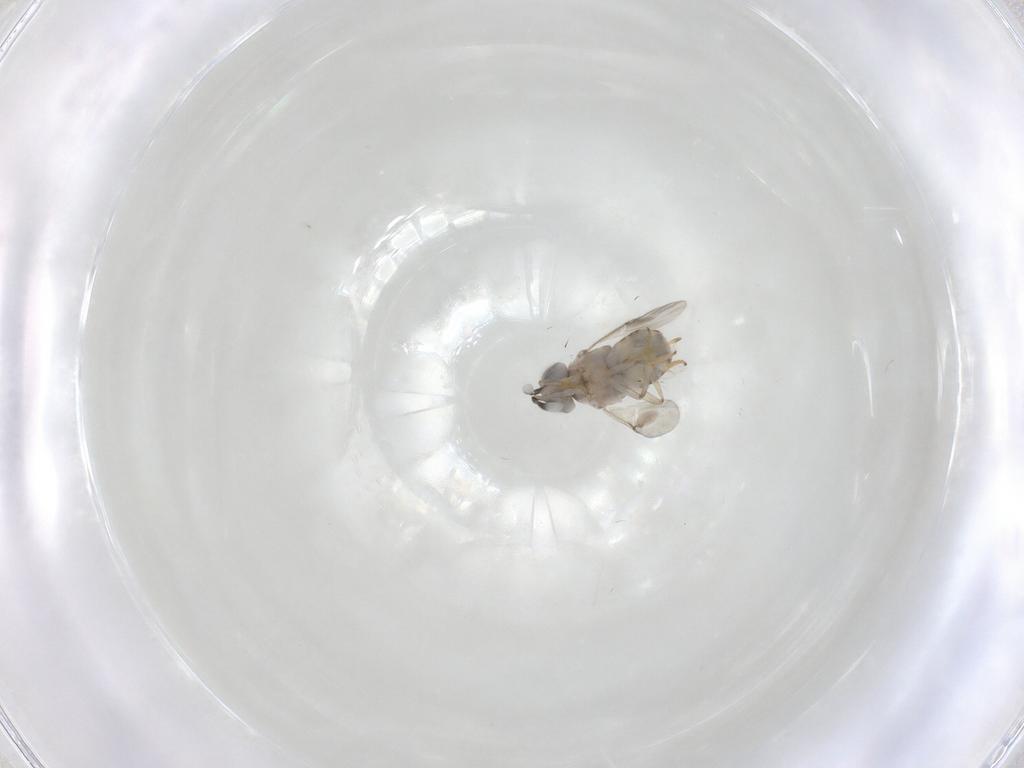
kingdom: Animalia
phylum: Arthropoda
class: Insecta
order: Hymenoptera
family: Encyrtidae
